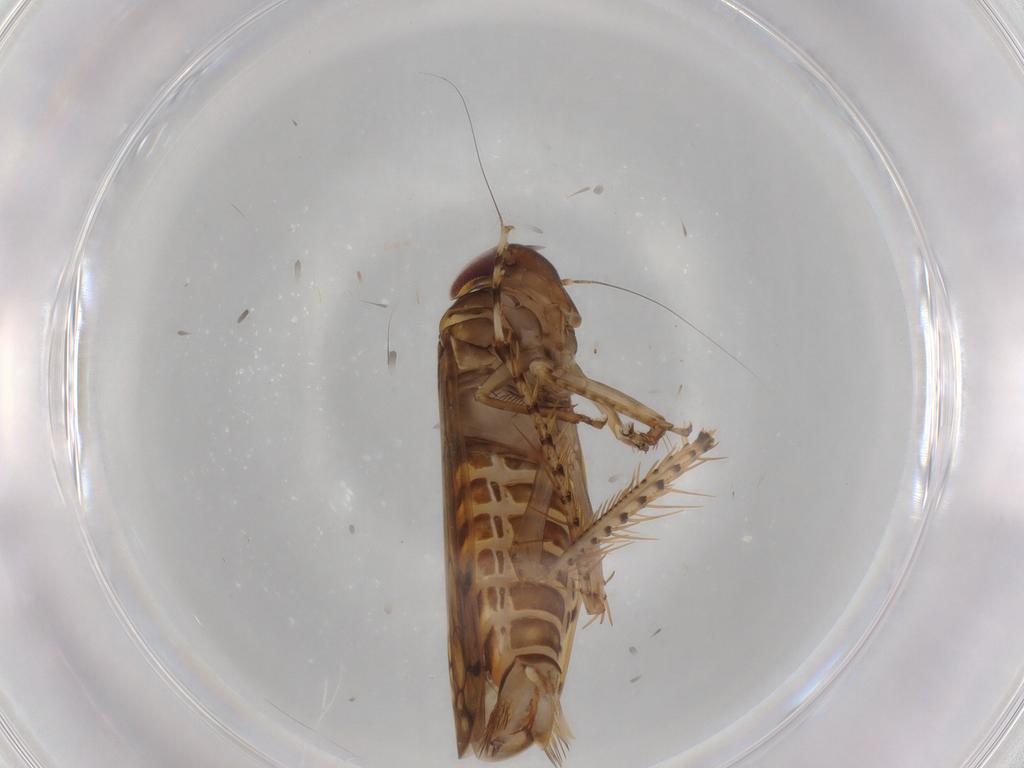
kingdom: Animalia
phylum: Arthropoda
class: Insecta
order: Hemiptera
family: Cicadellidae
